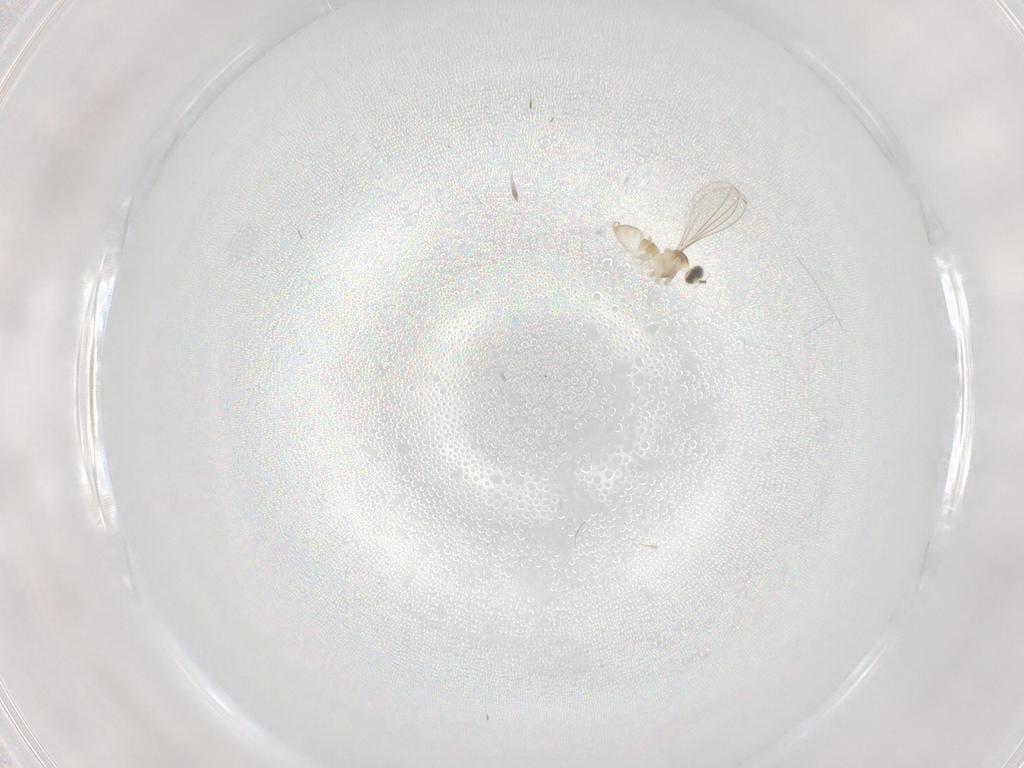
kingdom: Animalia
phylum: Arthropoda
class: Insecta
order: Diptera
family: Cecidomyiidae
